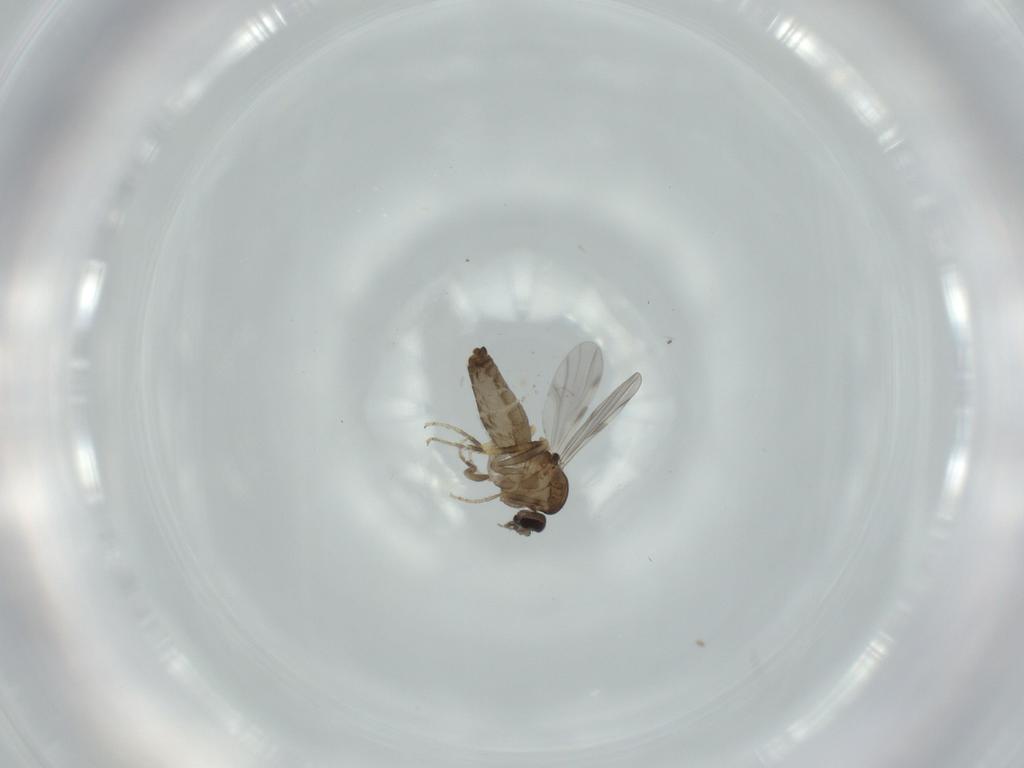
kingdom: Animalia
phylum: Arthropoda
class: Insecta
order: Diptera
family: Ceratopogonidae
